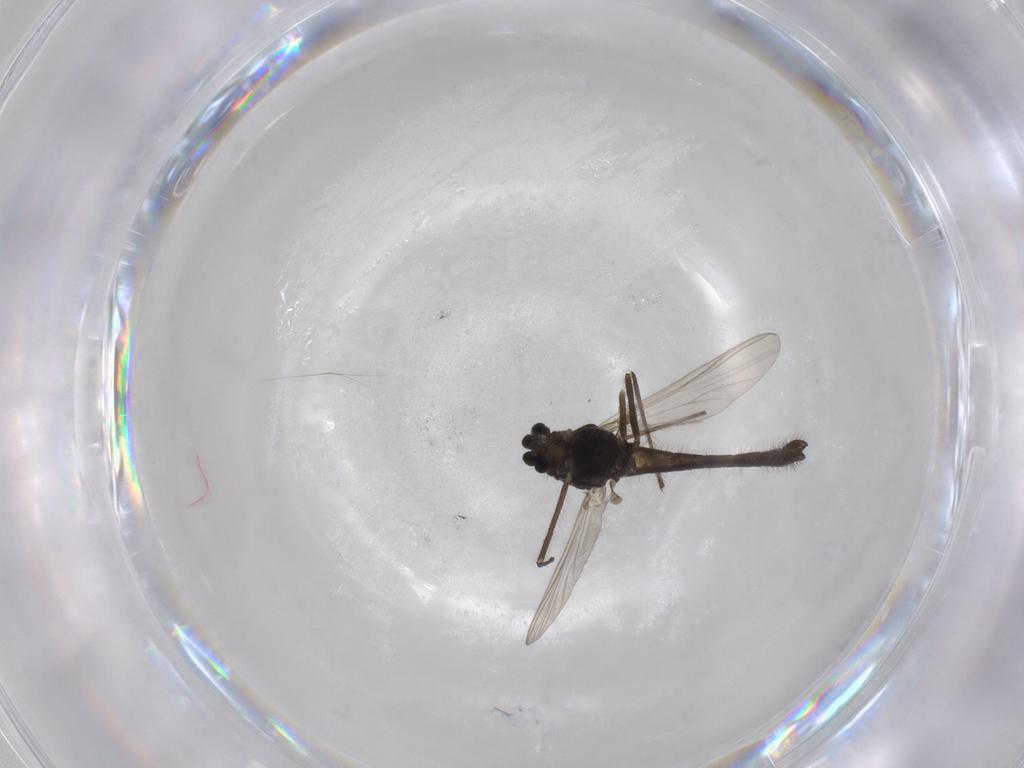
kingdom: Animalia
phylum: Arthropoda
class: Insecta
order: Diptera
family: Chironomidae
